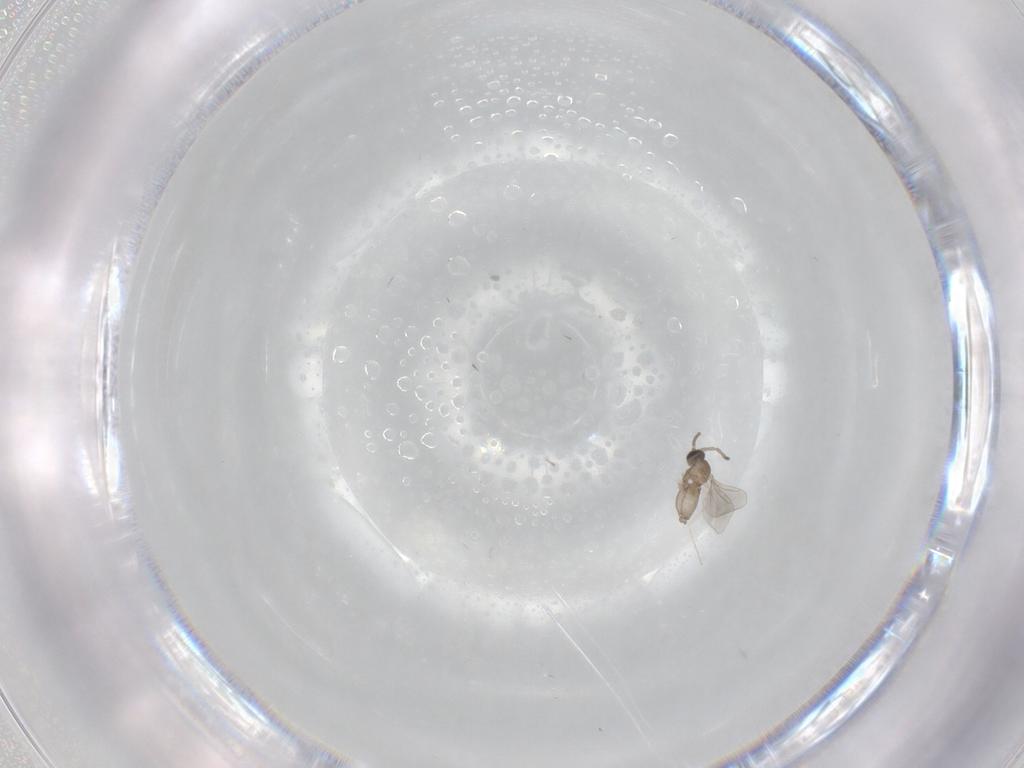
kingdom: Animalia
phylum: Arthropoda
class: Insecta
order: Diptera
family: Cecidomyiidae
